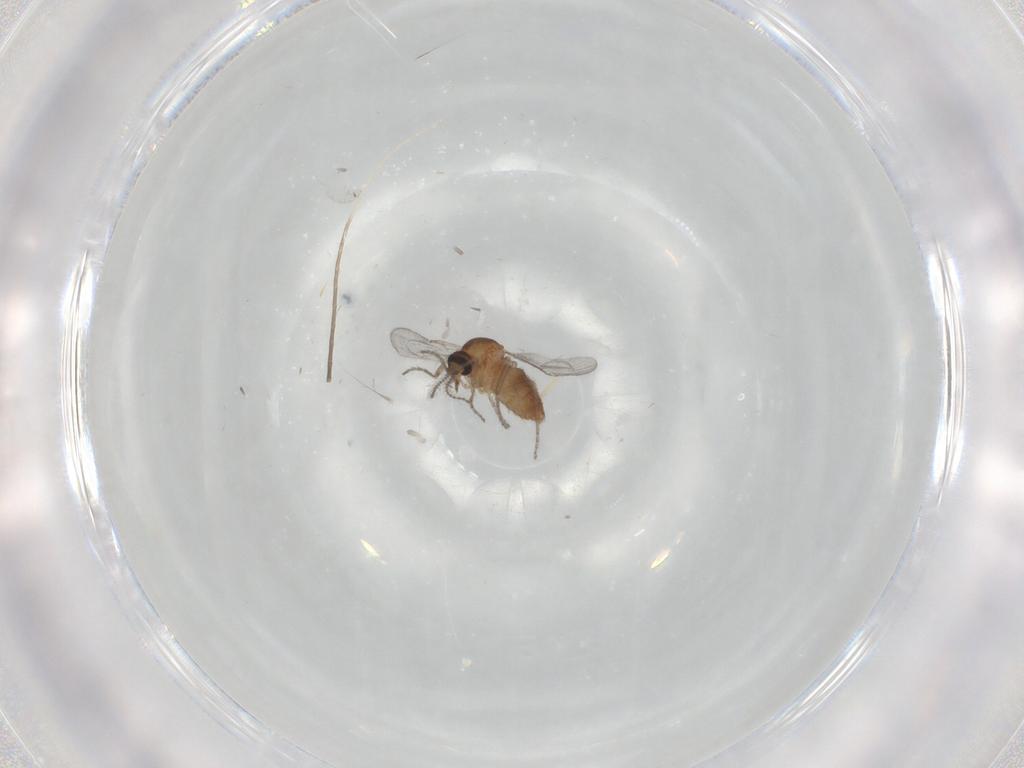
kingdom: Animalia
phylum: Arthropoda
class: Insecta
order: Diptera
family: Ceratopogonidae
